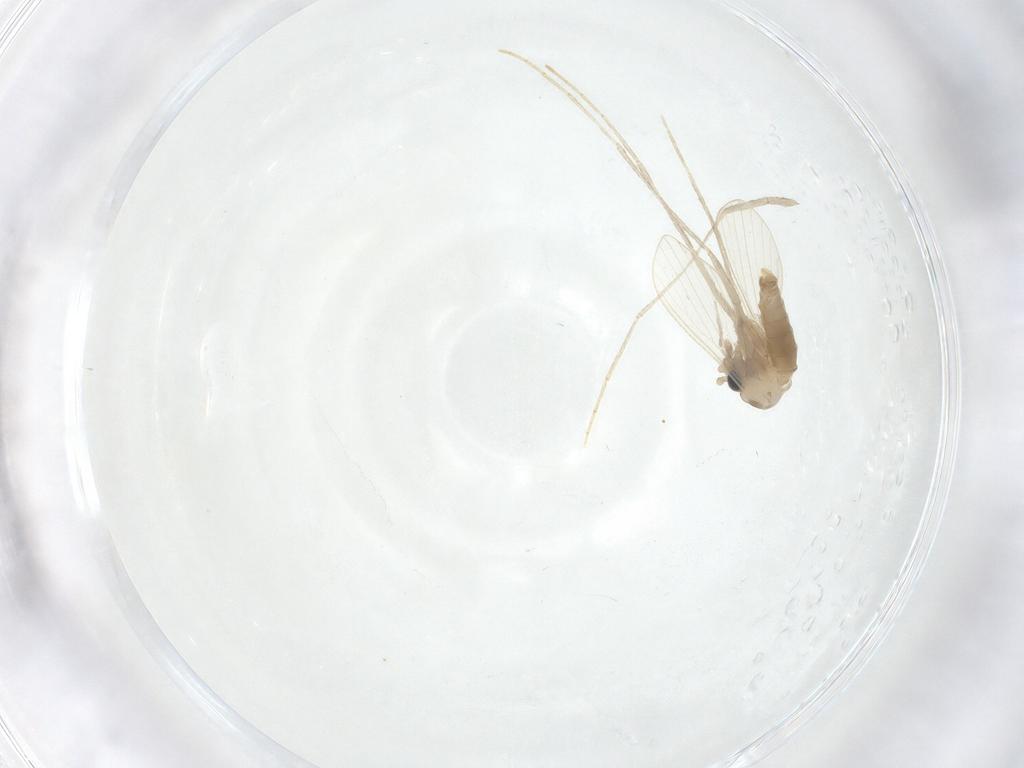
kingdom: Animalia
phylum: Arthropoda
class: Insecta
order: Diptera
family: Psychodidae
